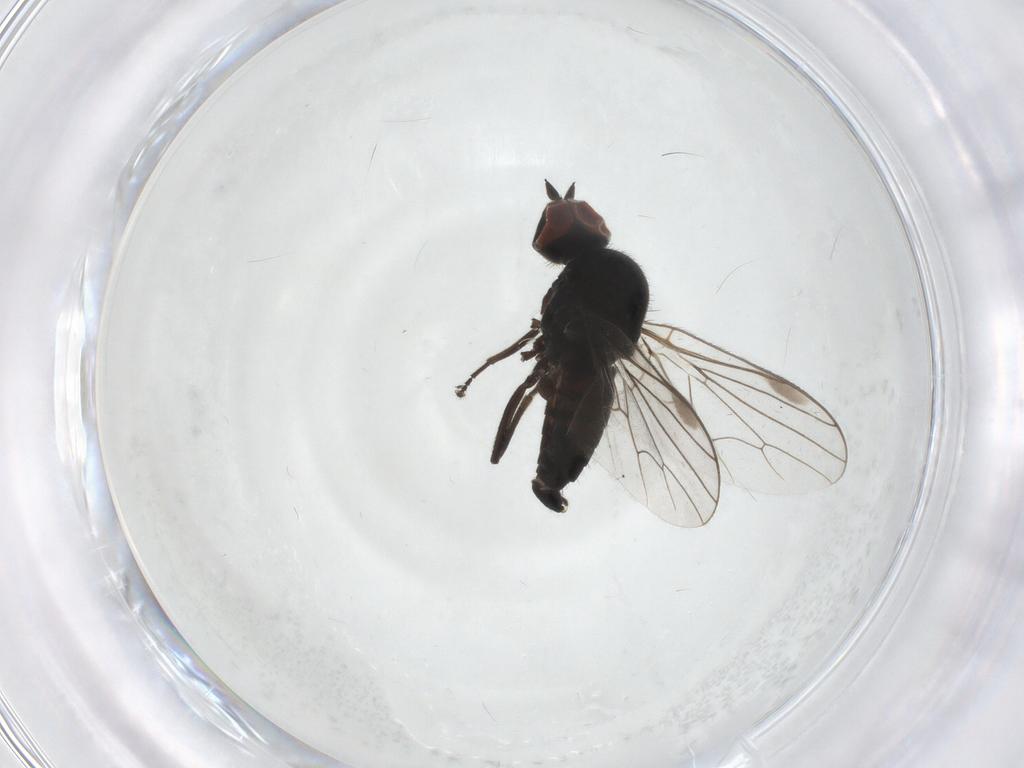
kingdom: Animalia
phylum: Arthropoda
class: Insecta
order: Diptera
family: Hybotidae
